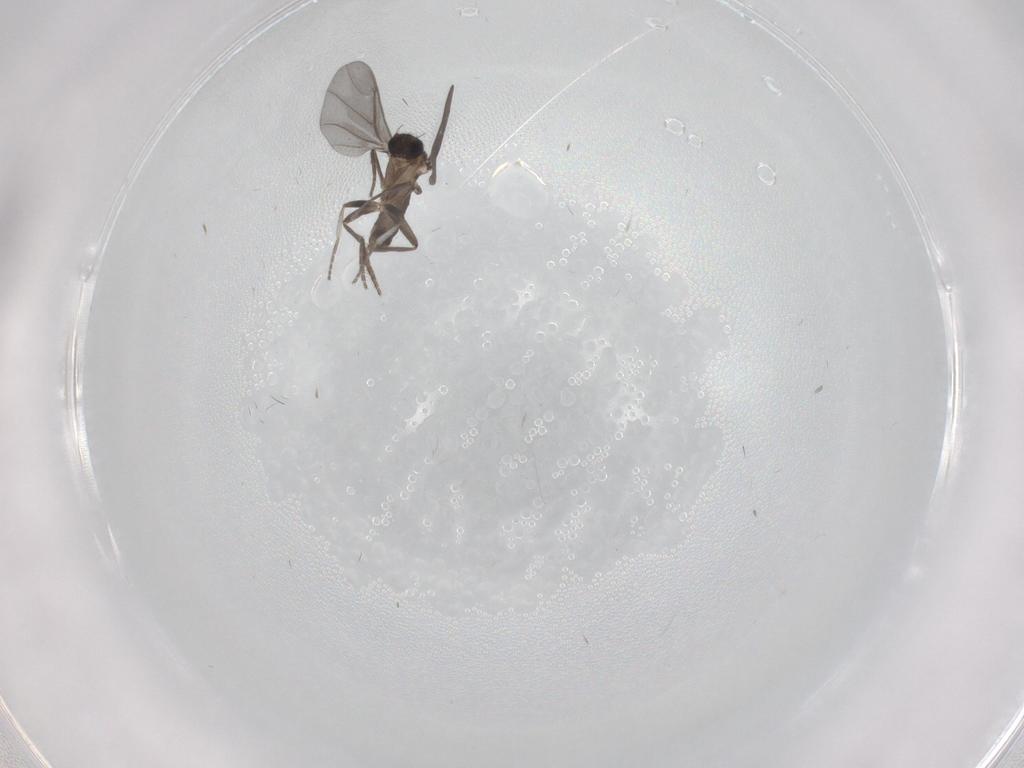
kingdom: Animalia
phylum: Arthropoda
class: Insecta
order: Diptera
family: Phoridae
